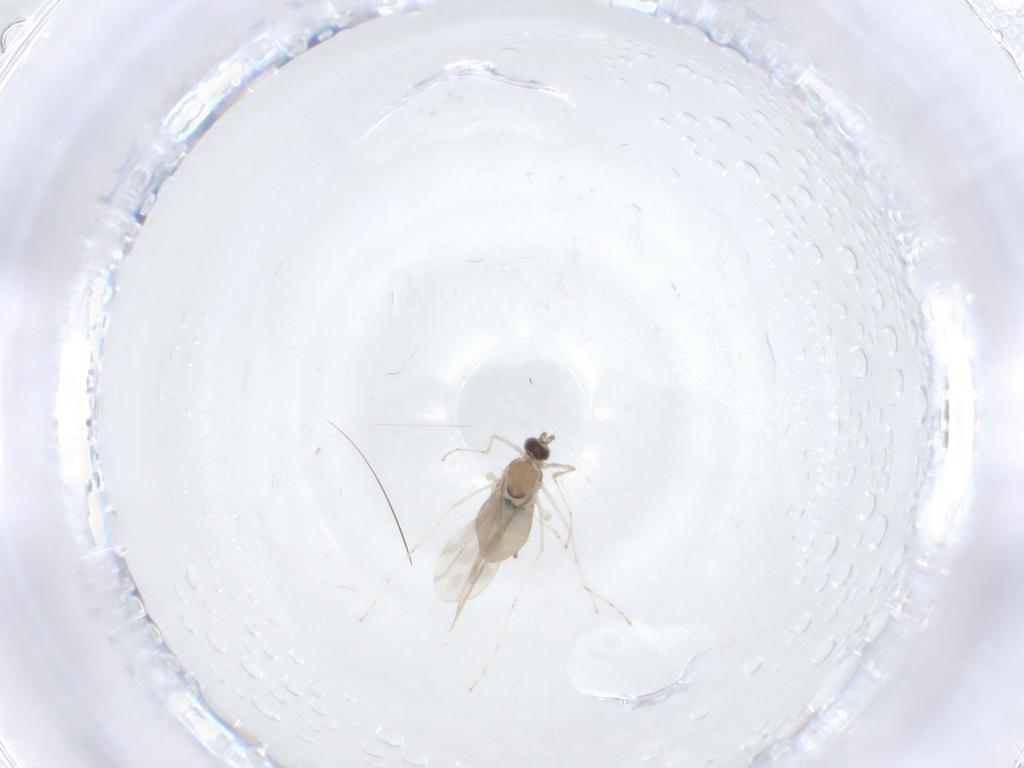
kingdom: Animalia
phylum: Arthropoda
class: Insecta
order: Diptera
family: Cecidomyiidae
